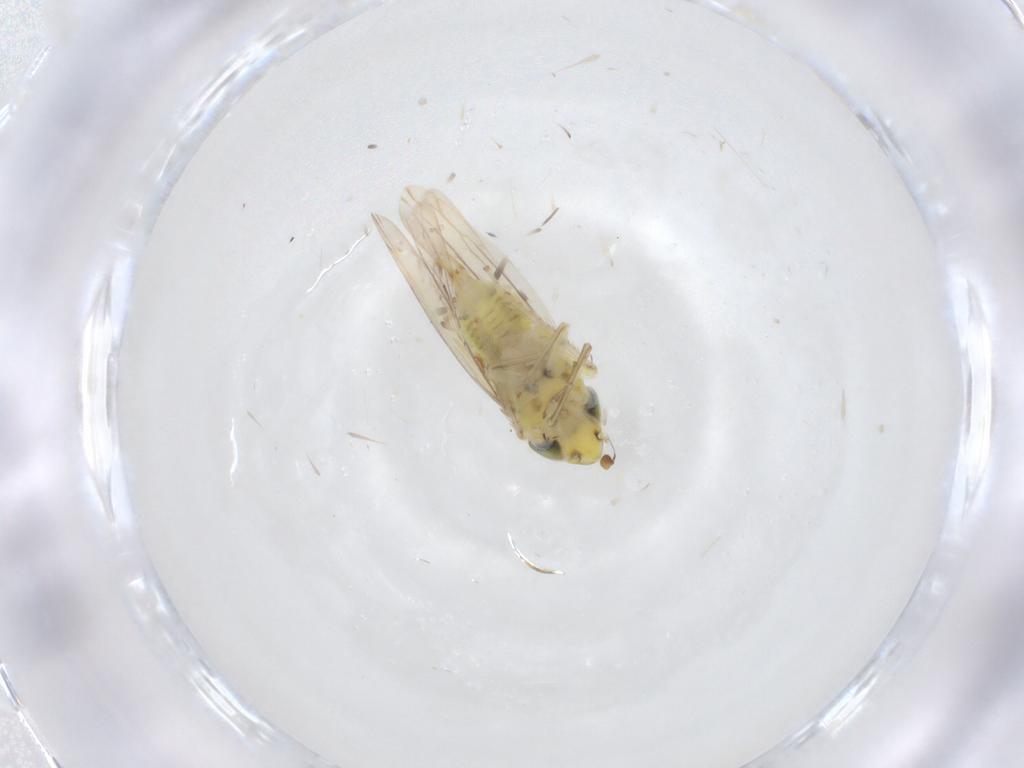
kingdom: Animalia
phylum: Arthropoda
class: Insecta
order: Hemiptera
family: Cicadellidae
